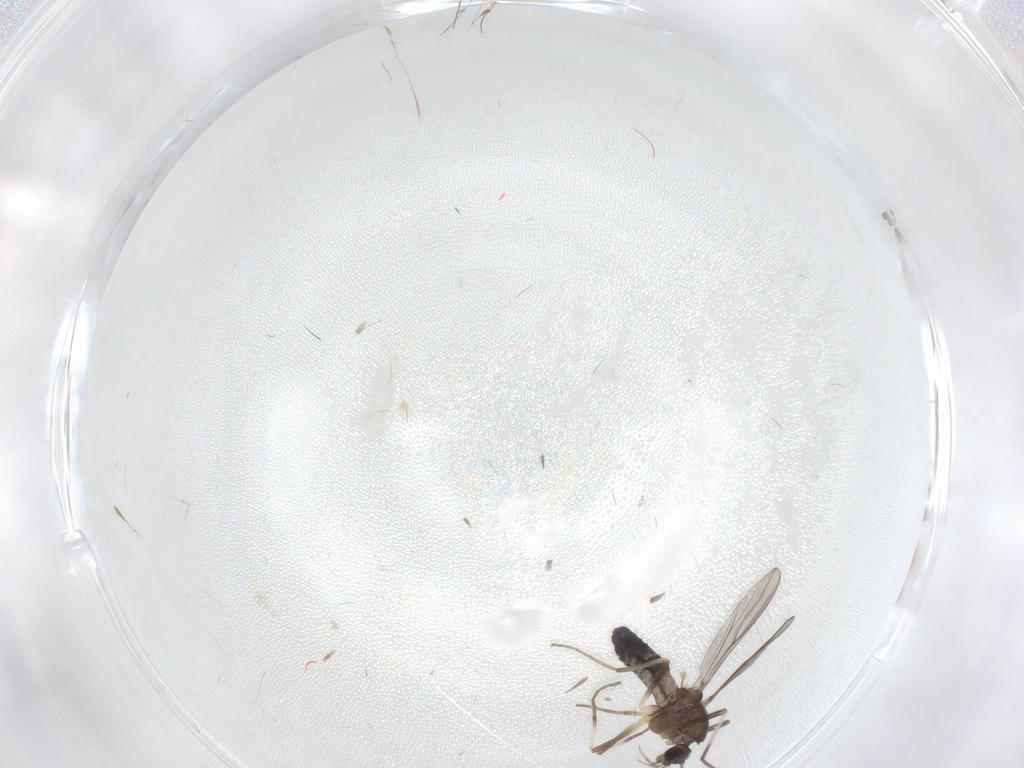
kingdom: Animalia
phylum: Arthropoda
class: Insecta
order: Diptera
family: Chironomidae
